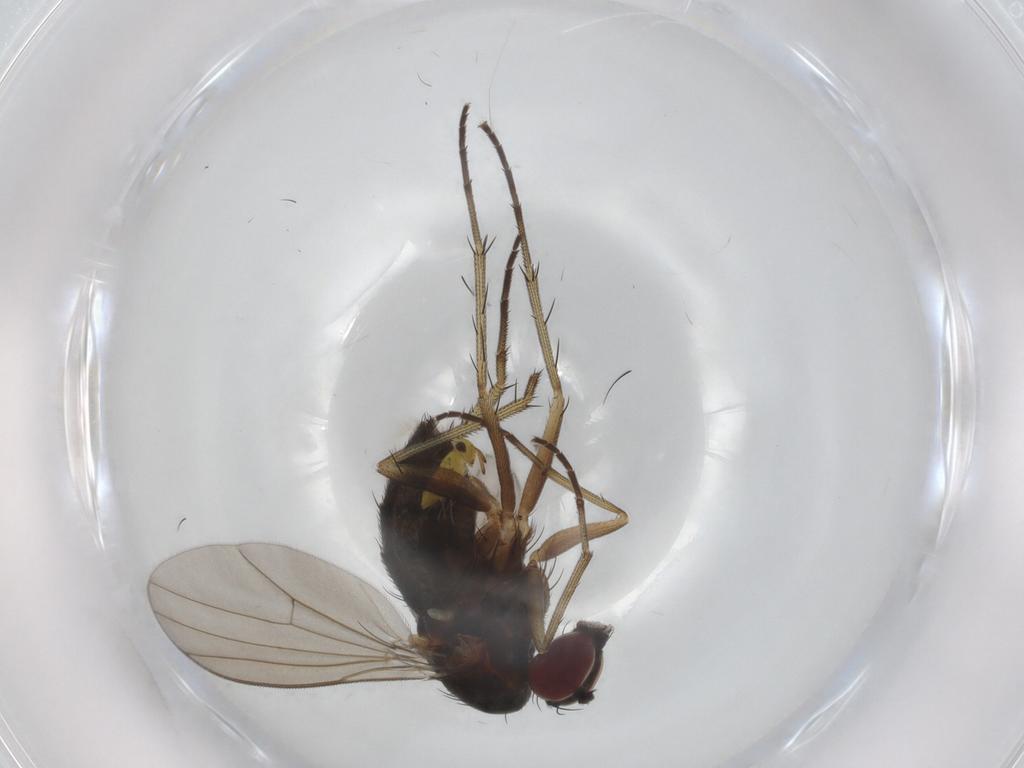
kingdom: Animalia
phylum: Arthropoda
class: Insecta
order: Diptera
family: Dolichopodidae
